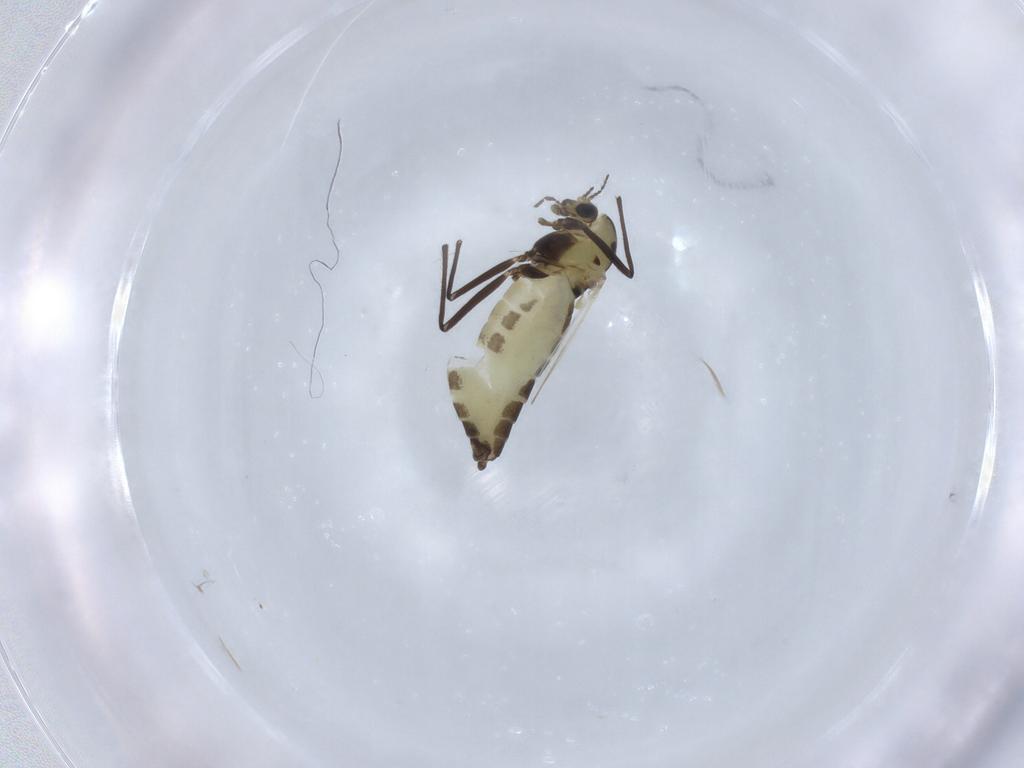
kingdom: Animalia
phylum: Arthropoda
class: Insecta
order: Diptera
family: Chironomidae
